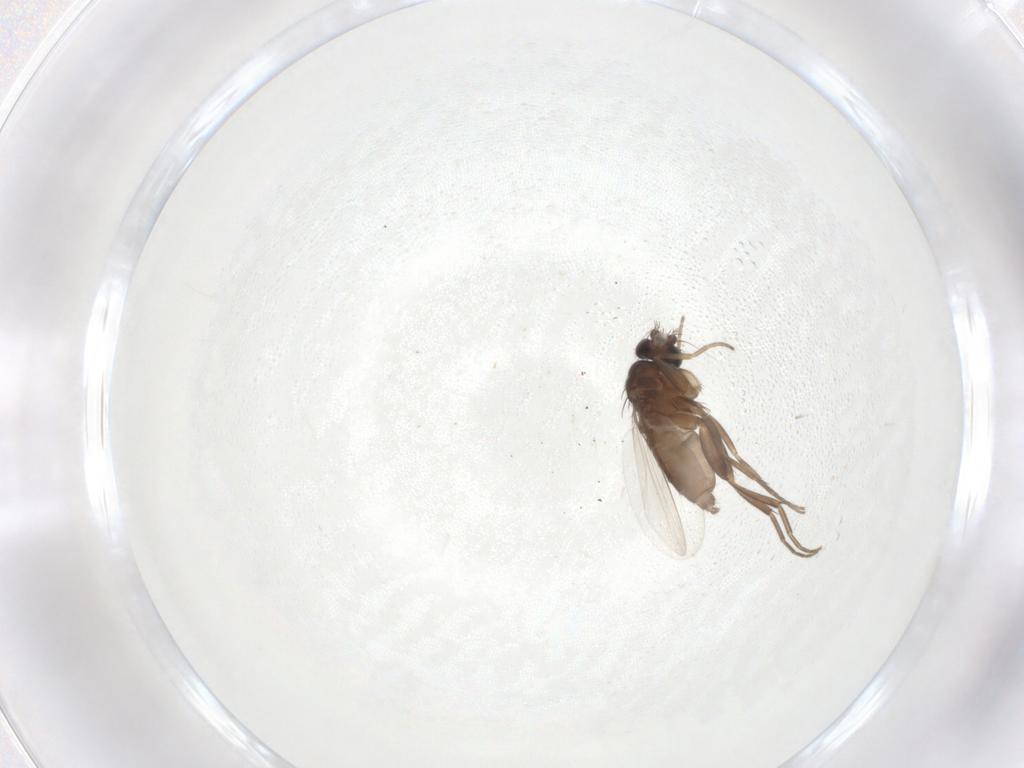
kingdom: Animalia
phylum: Arthropoda
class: Insecta
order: Diptera
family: Phoridae
